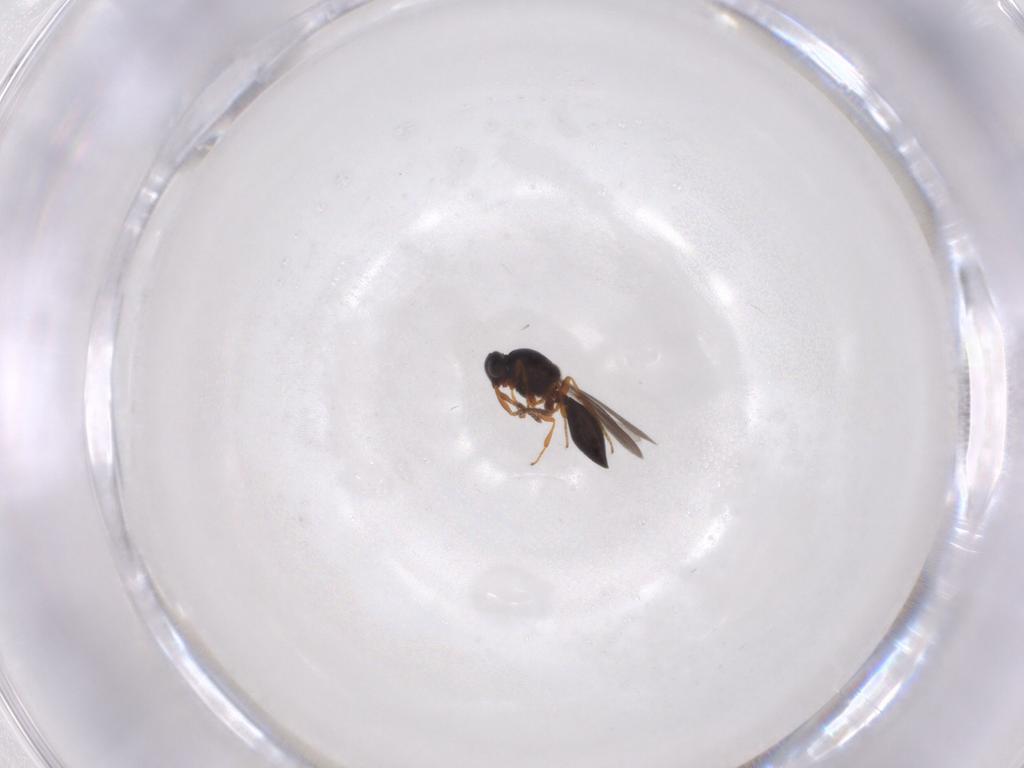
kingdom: Animalia
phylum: Arthropoda
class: Insecta
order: Hymenoptera
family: Platygastridae
